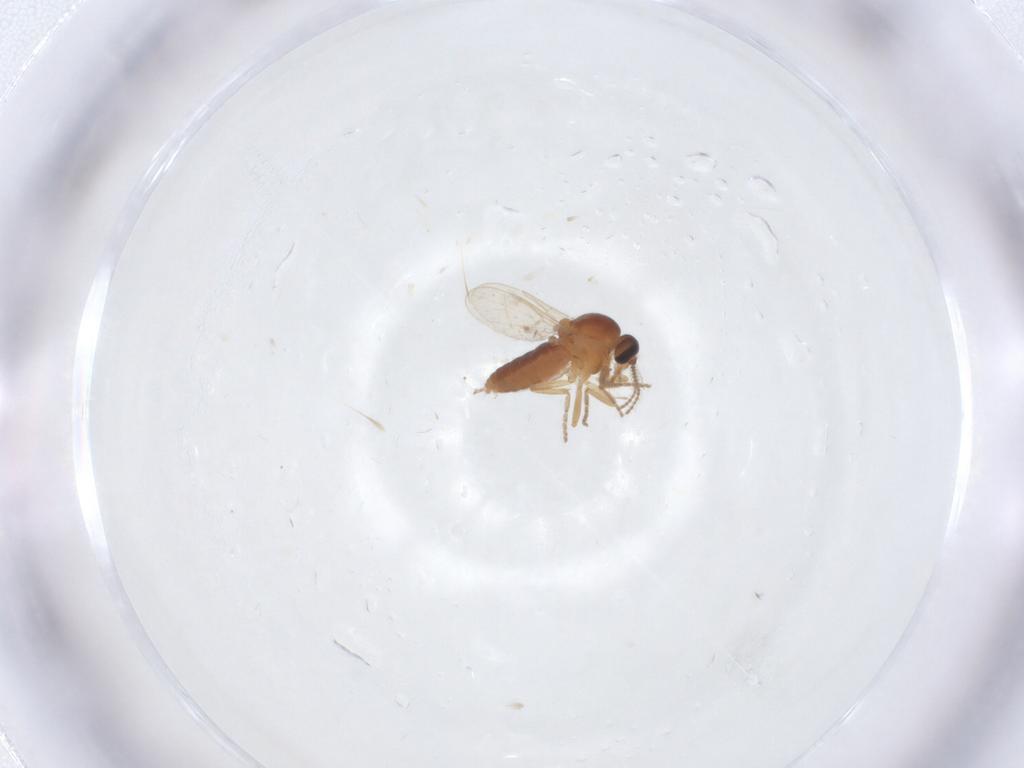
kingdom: Animalia
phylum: Arthropoda
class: Insecta
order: Diptera
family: Ceratopogonidae
